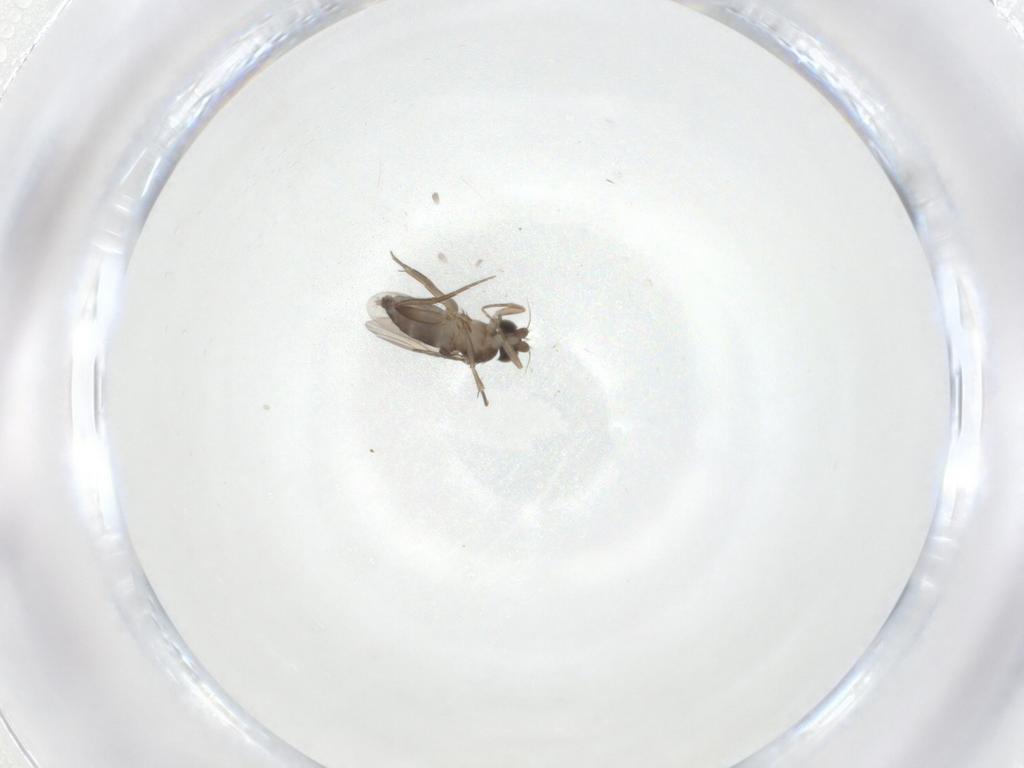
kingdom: Animalia
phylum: Arthropoda
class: Insecta
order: Diptera
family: Phoridae
